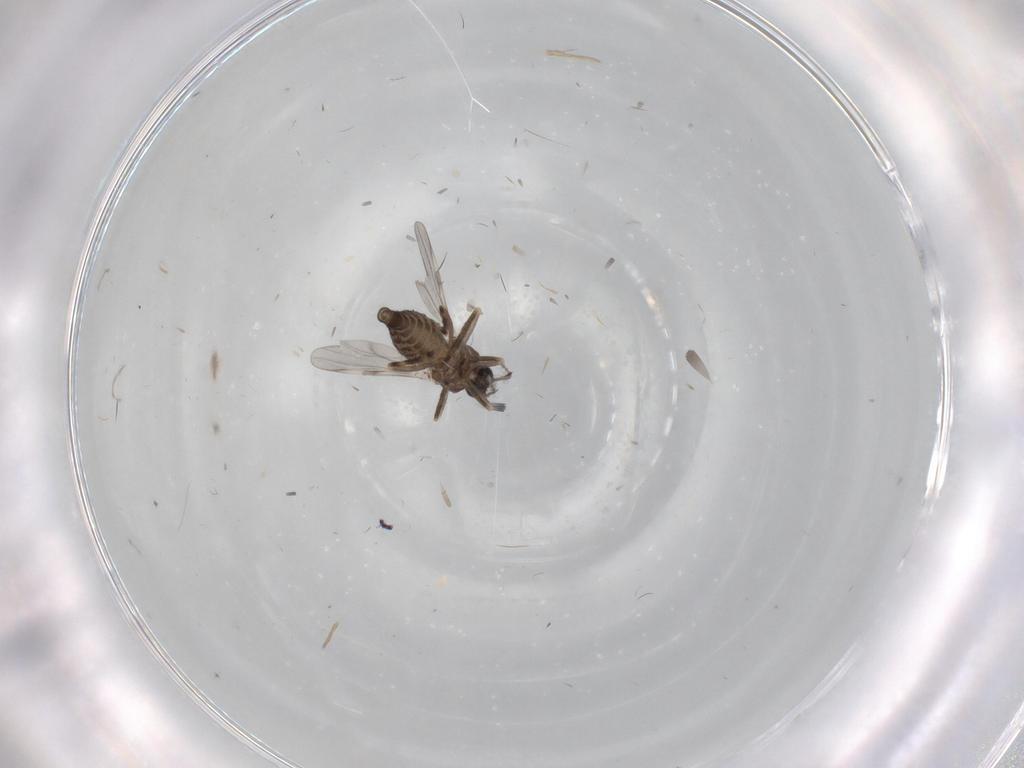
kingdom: Animalia
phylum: Arthropoda
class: Insecta
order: Diptera
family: Ceratopogonidae
